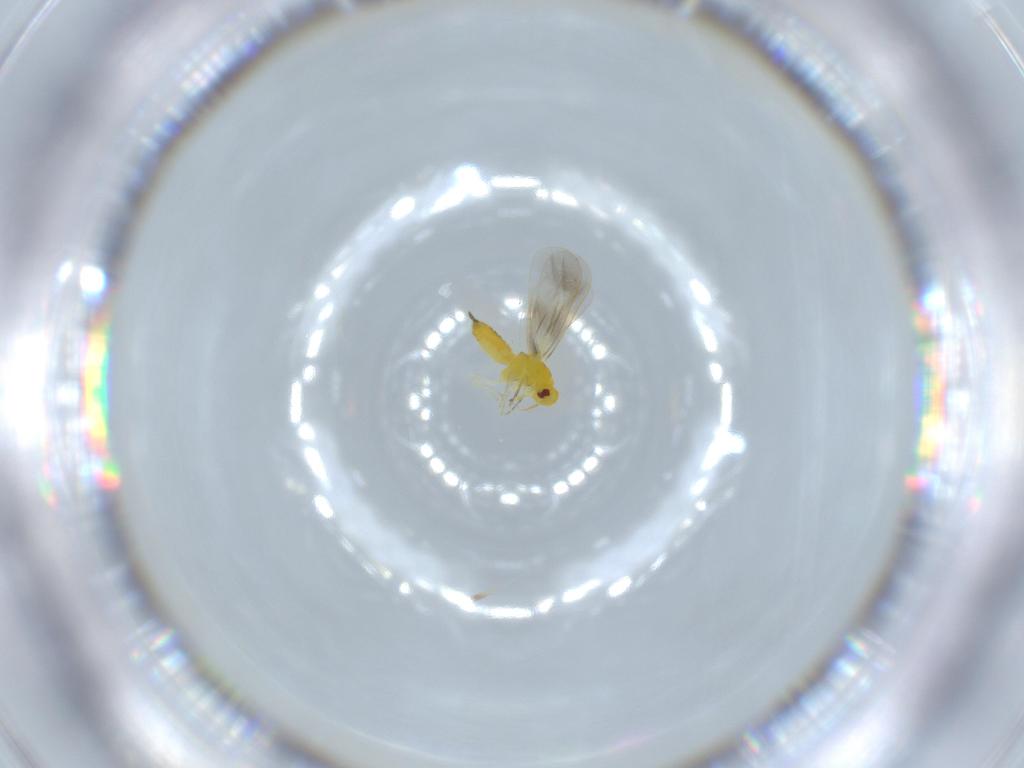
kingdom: Animalia
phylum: Arthropoda
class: Insecta
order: Hemiptera
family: Aleyrodidae
